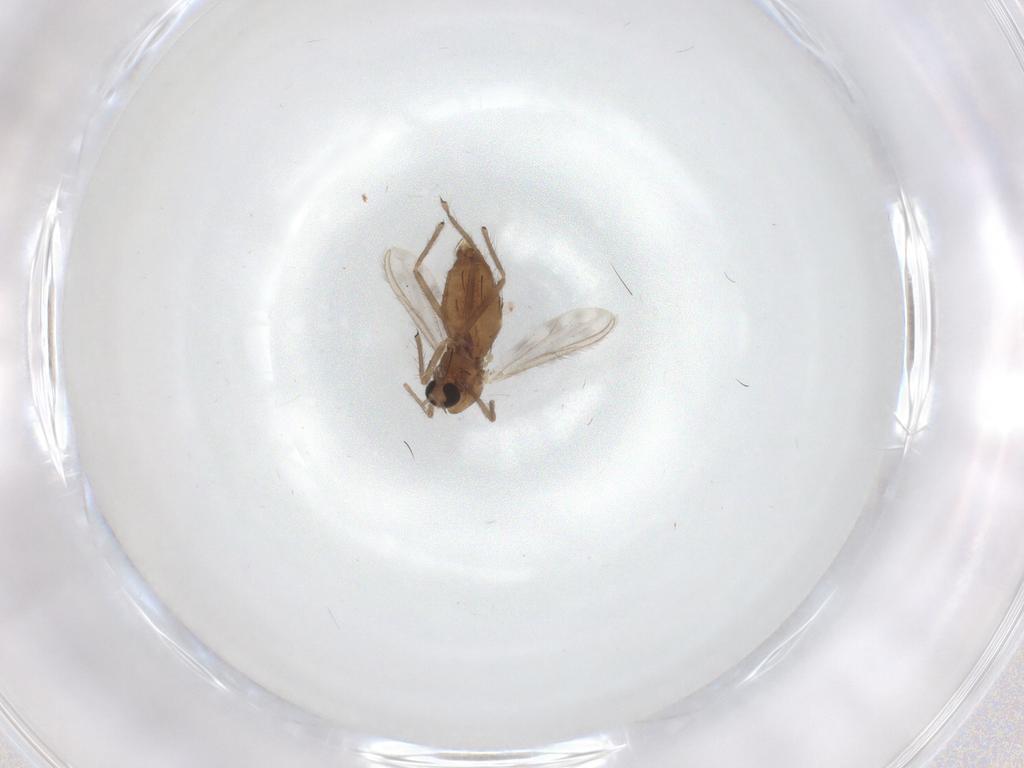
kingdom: Animalia
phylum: Arthropoda
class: Insecta
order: Diptera
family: Chironomidae
